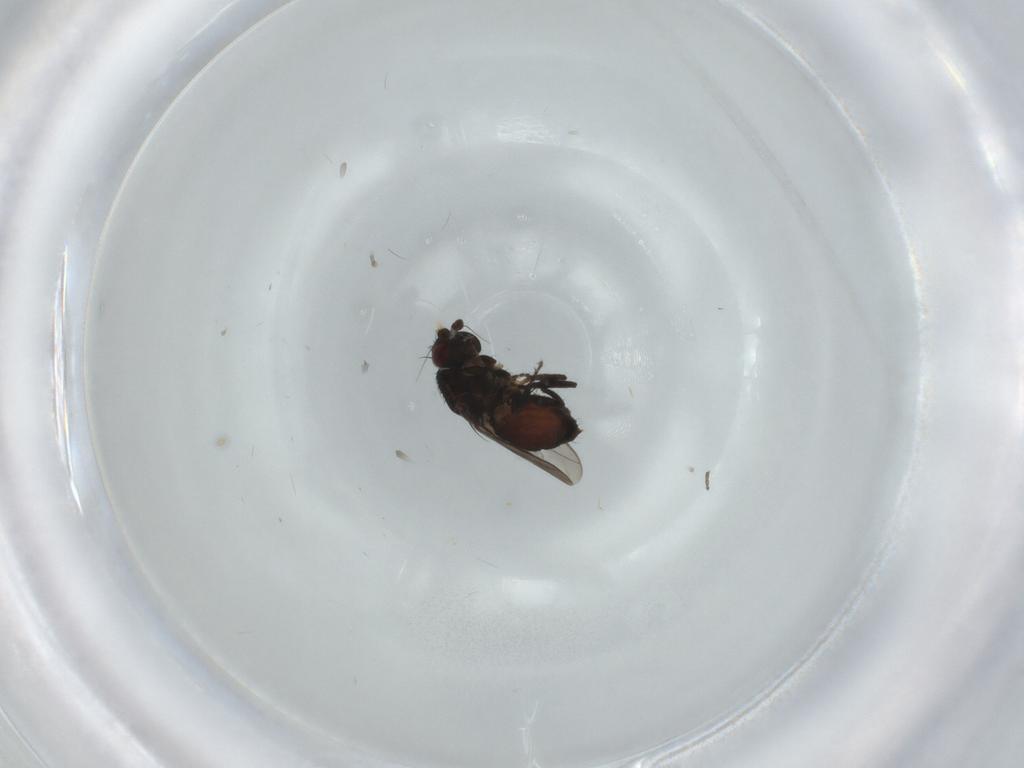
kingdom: Animalia
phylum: Arthropoda
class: Insecta
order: Diptera
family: Sphaeroceridae
